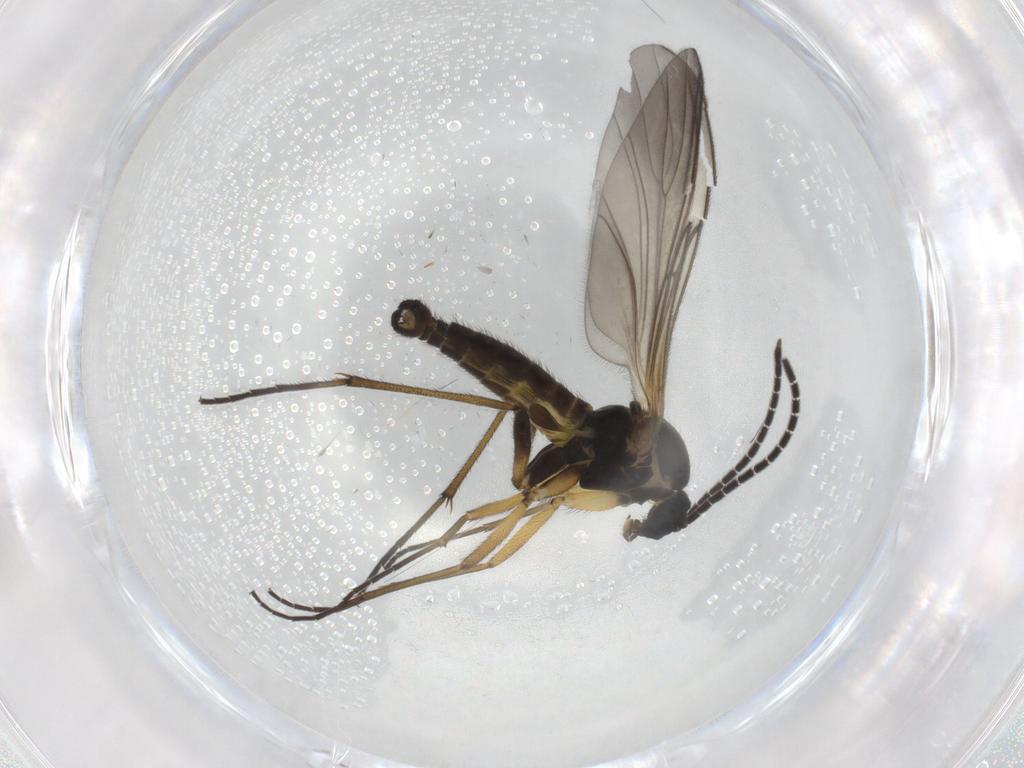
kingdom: Animalia
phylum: Arthropoda
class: Insecta
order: Diptera
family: Sciaridae
